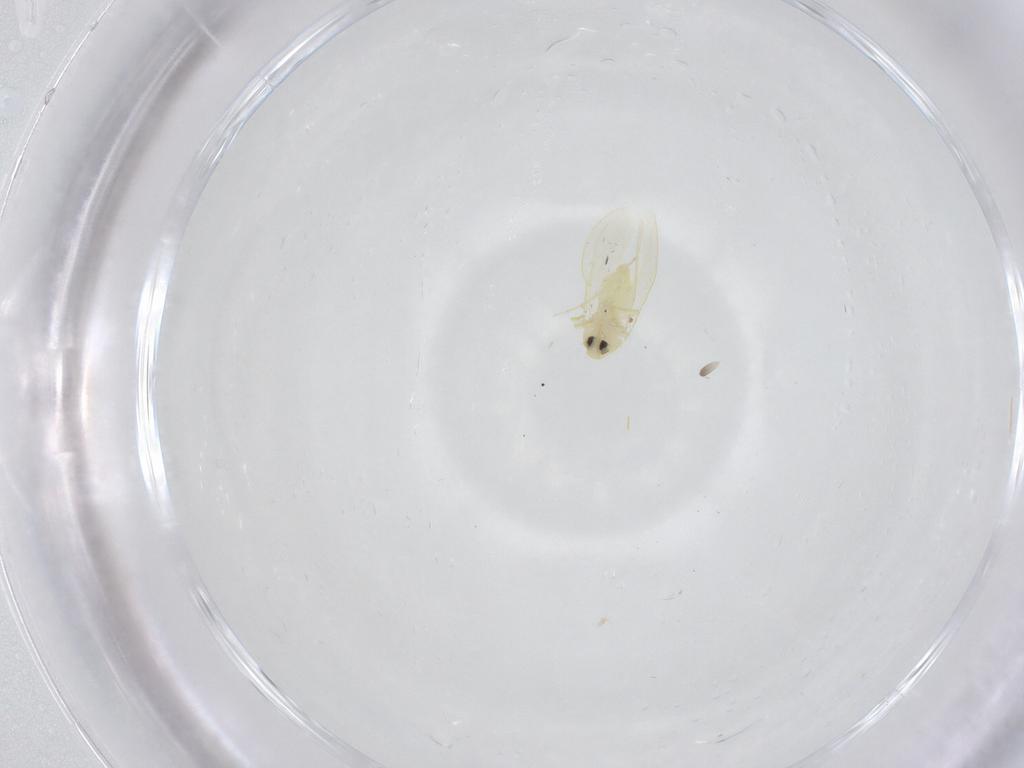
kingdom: Animalia
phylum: Arthropoda
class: Insecta
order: Hemiptera
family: Aleyrodidae
